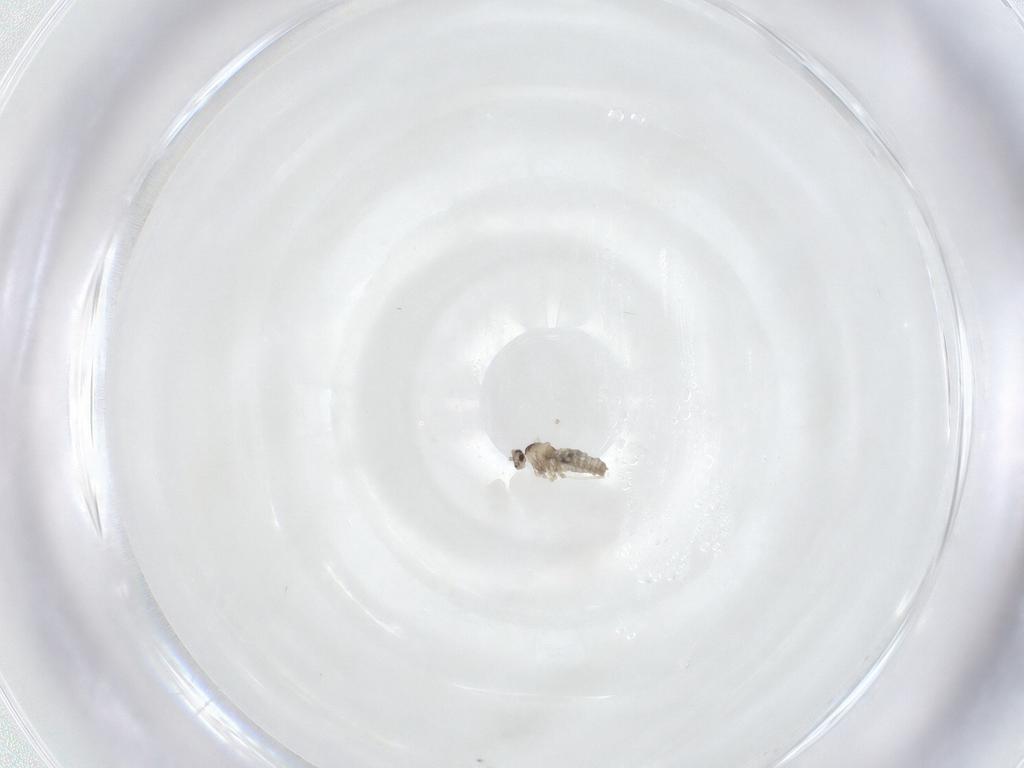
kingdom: Animalia
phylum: Arthropoda
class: Insecta
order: Diptera
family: Cecidomyiidae
